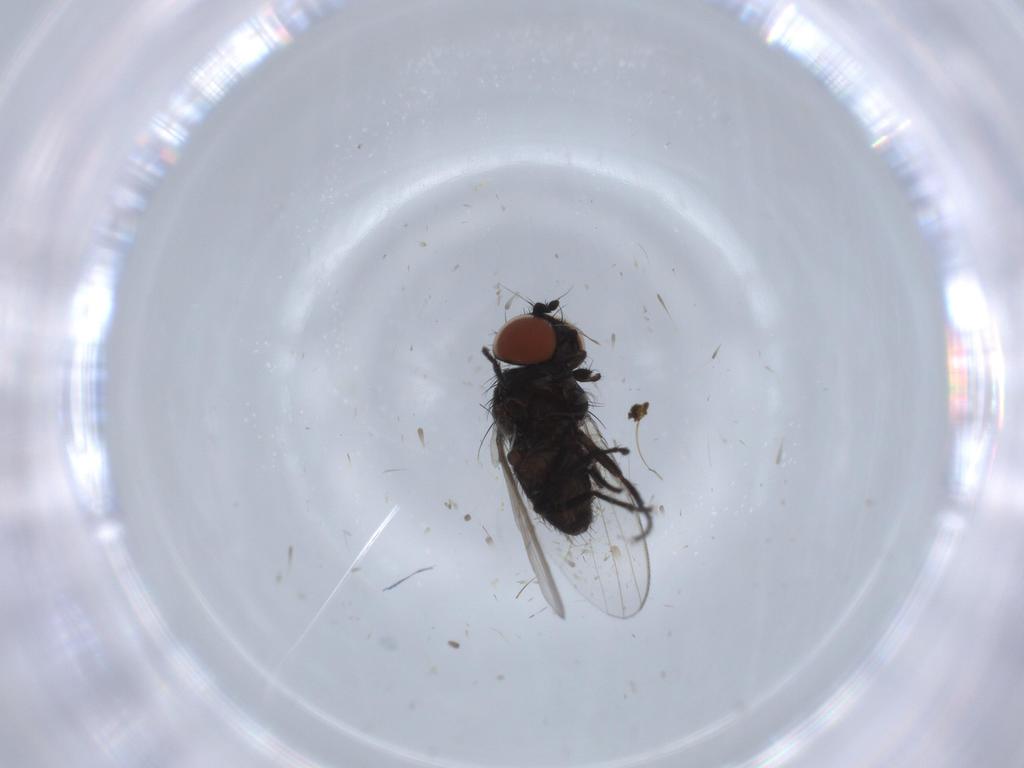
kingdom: Animalia
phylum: Arthropoda
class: Insecta
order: Diptera
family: Milichiidae
